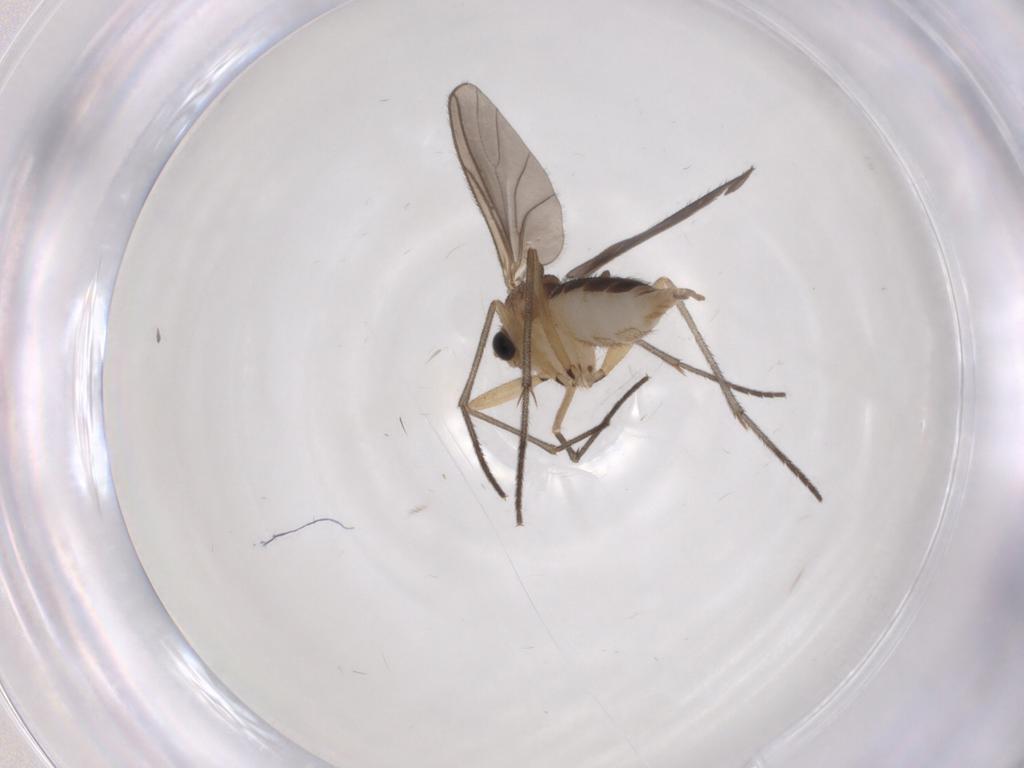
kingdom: Animalia
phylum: Arthropoda
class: Insecta
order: Diptera
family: Sciaridae
